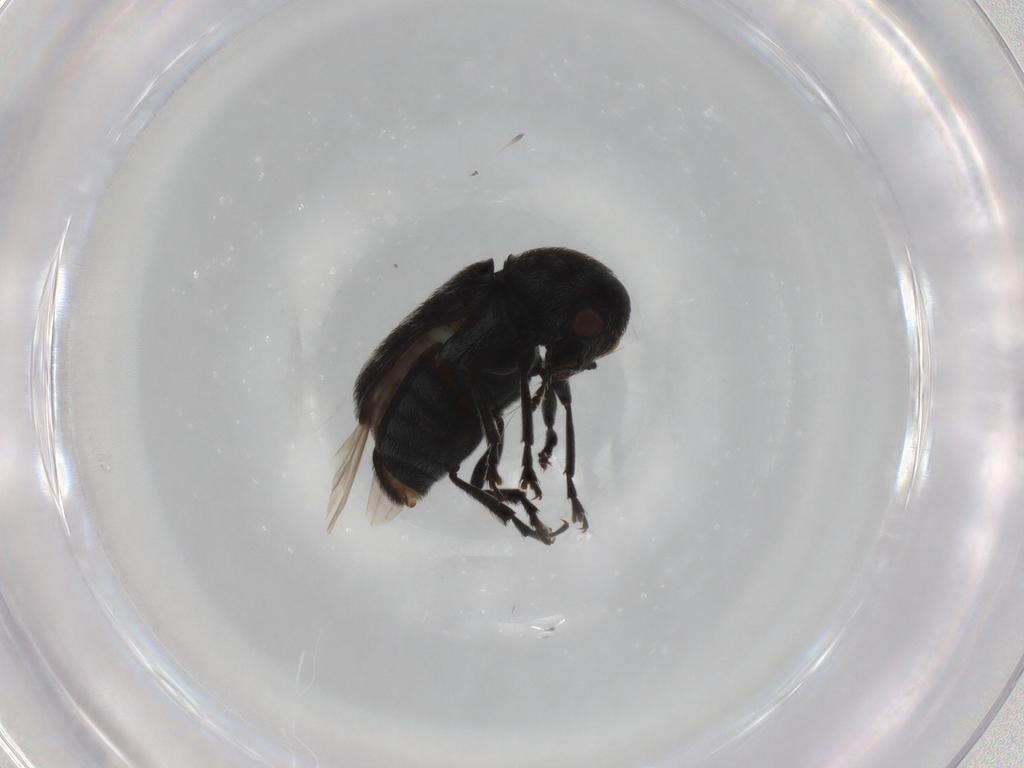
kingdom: Animalia
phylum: Arthropoda
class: Insecta
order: Coleoptera
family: Anthribidae
